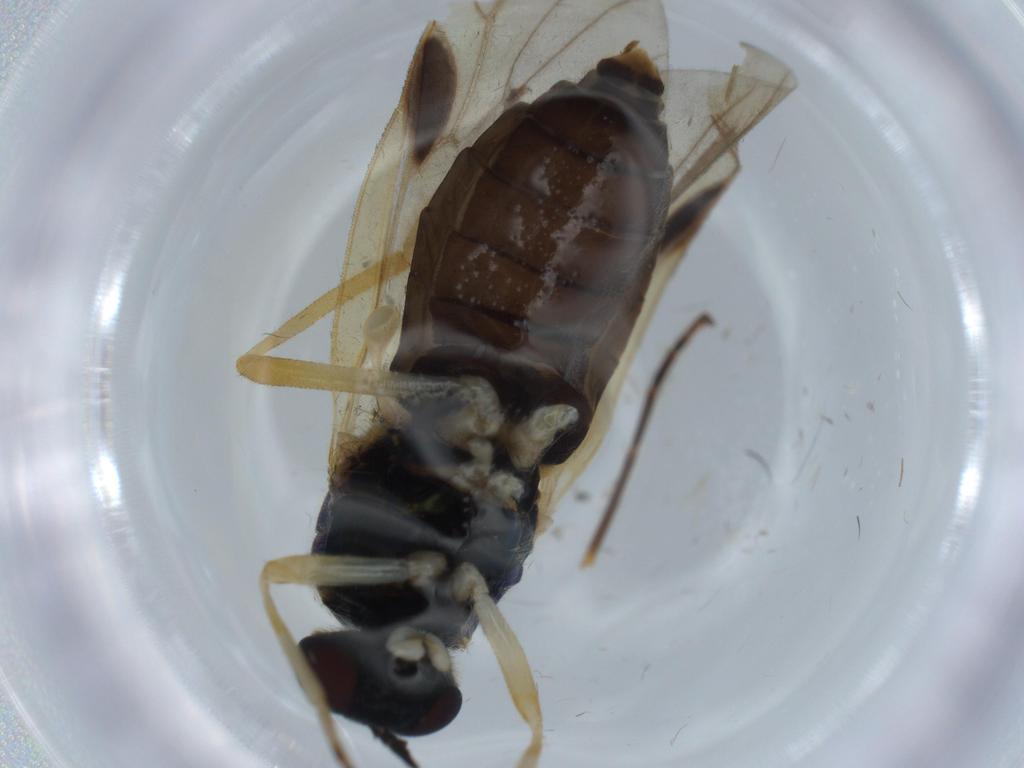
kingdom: Animalia
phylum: Arthropoda
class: Insecta
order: Diptera
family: Stratiomyidae
